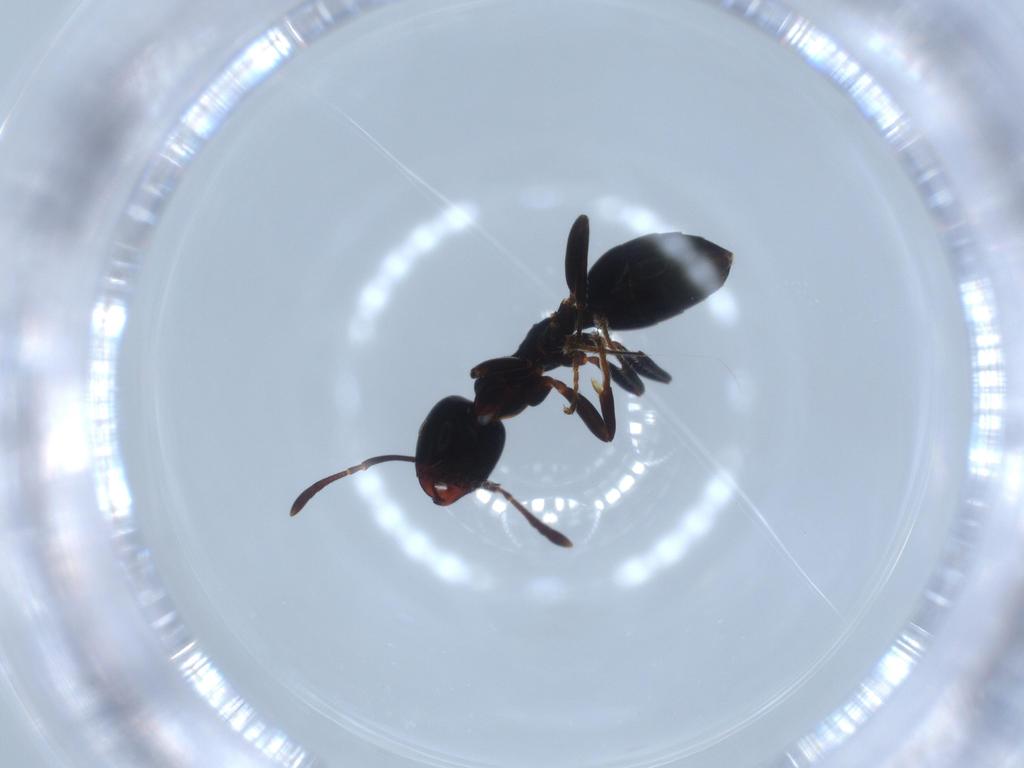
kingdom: Animalia
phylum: Arthropoda
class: Insecta
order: Hymenoptera
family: Formicidae
